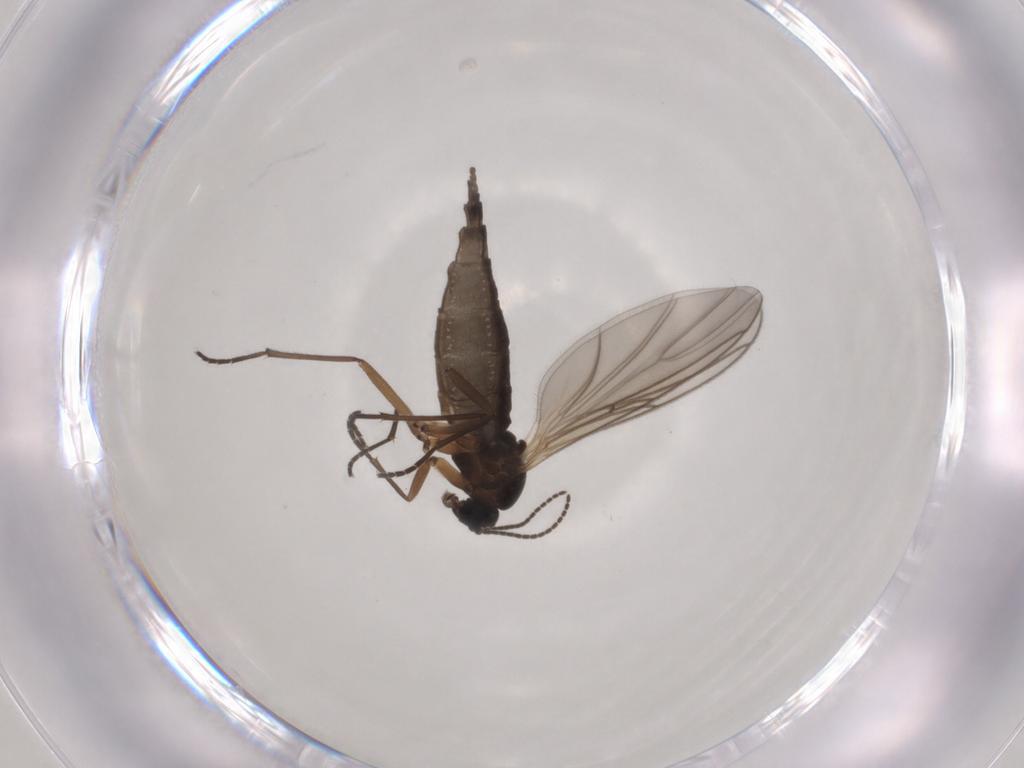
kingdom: Animalia
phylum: Arthropoda
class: Insecta
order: Diptera
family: Sciaridae
